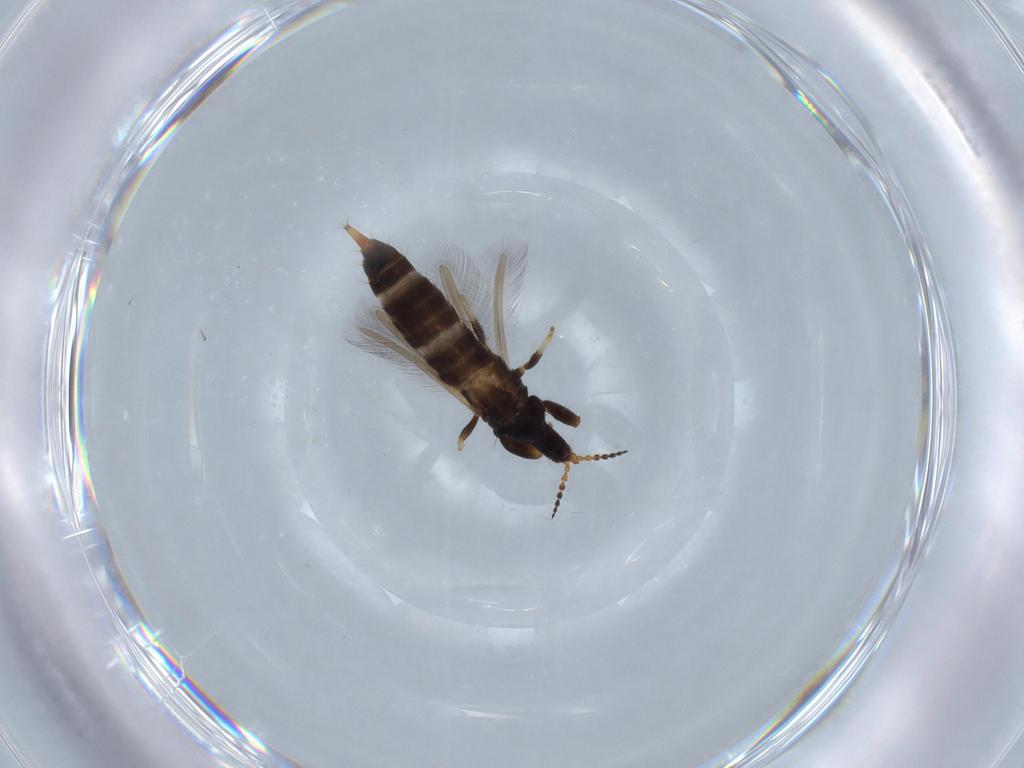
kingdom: Animalia
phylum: Arthropoda
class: Insecta
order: Thysanoptera
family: Phlaeothripidae
